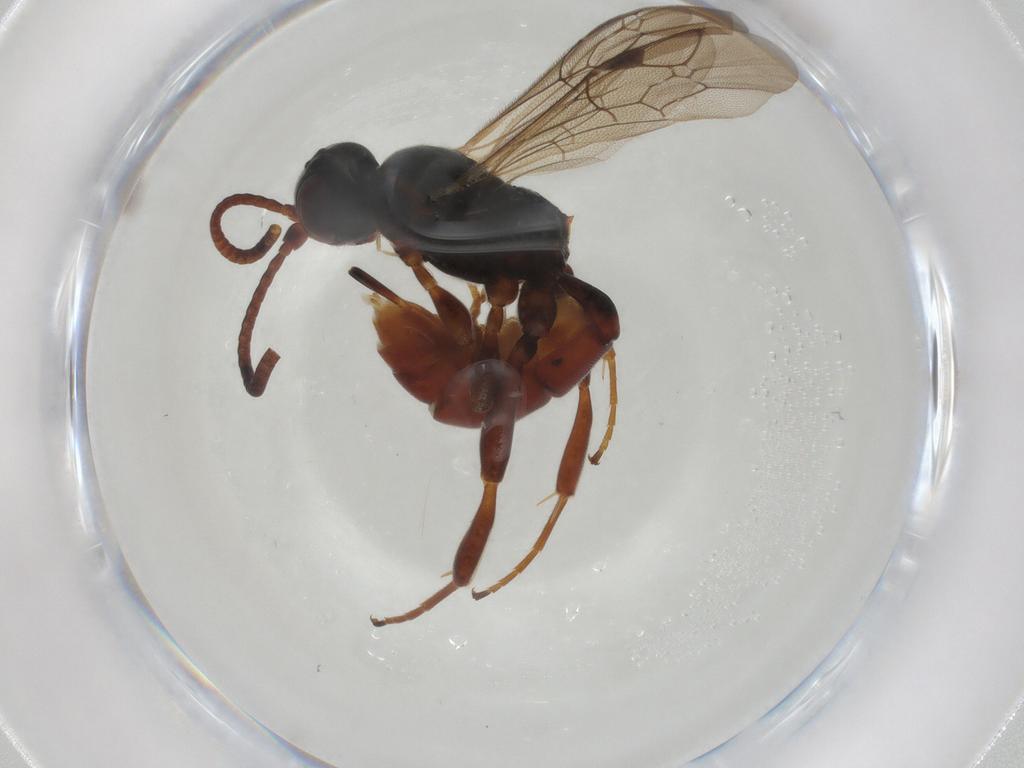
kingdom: Animalia
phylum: Arthropoda
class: Insecta
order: Hymenoptera
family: Ichneumonidae
